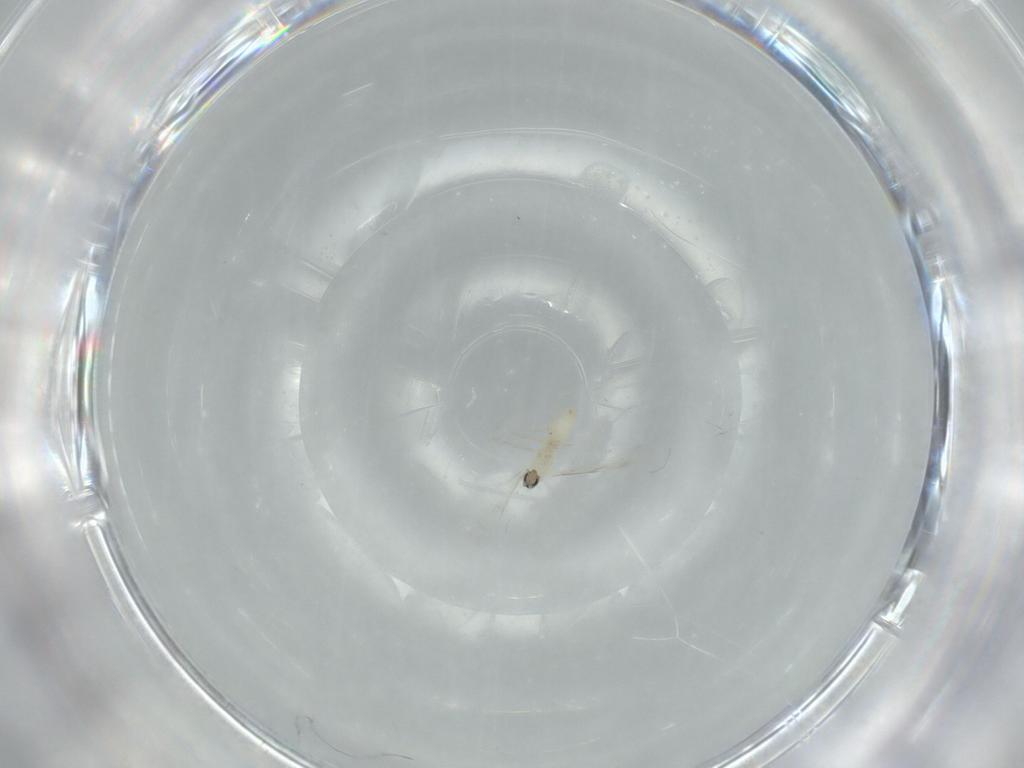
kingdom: Animalia
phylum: Arthropoda
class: Insecta
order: Diptera
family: Cecidomyiidae
